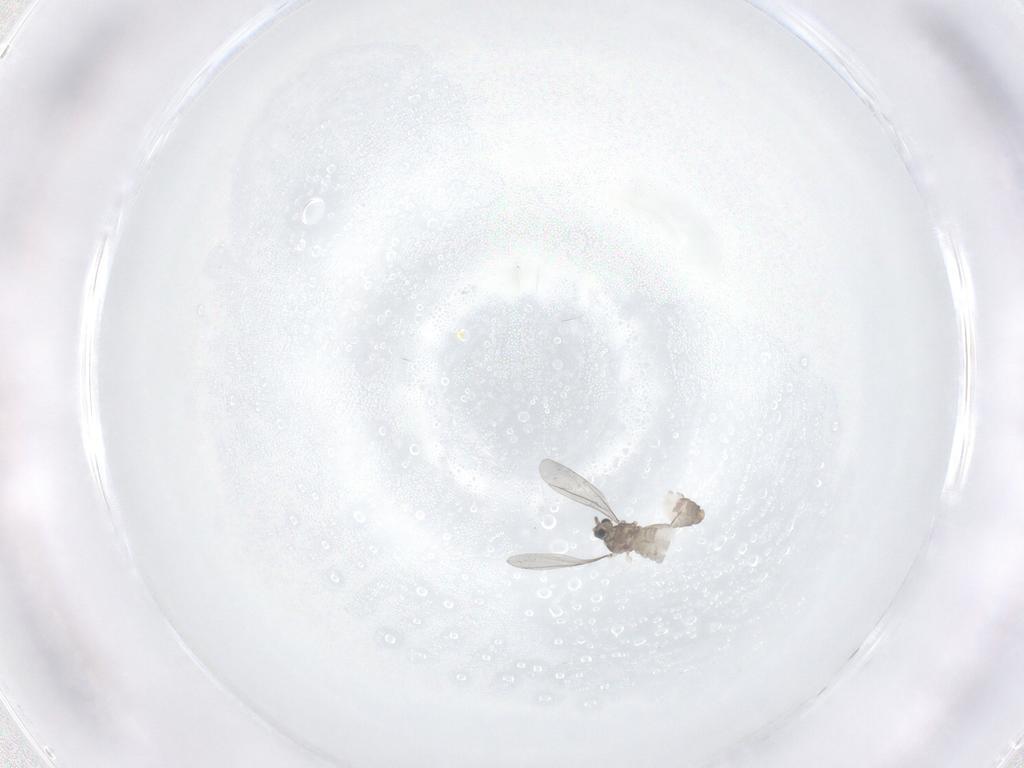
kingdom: Animalia
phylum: Arthropoda
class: Insecta
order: Diptera
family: Cecidomyiidae
